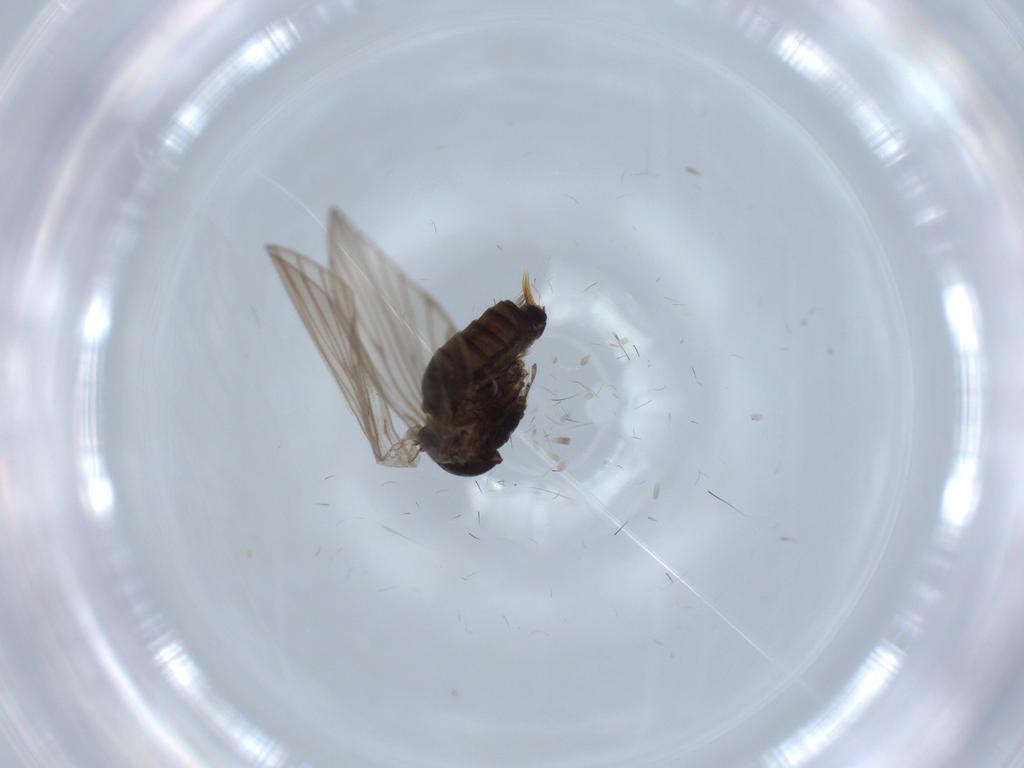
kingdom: Animalia
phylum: Arthropoda
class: Insecta
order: Diptera
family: Psychodidae
